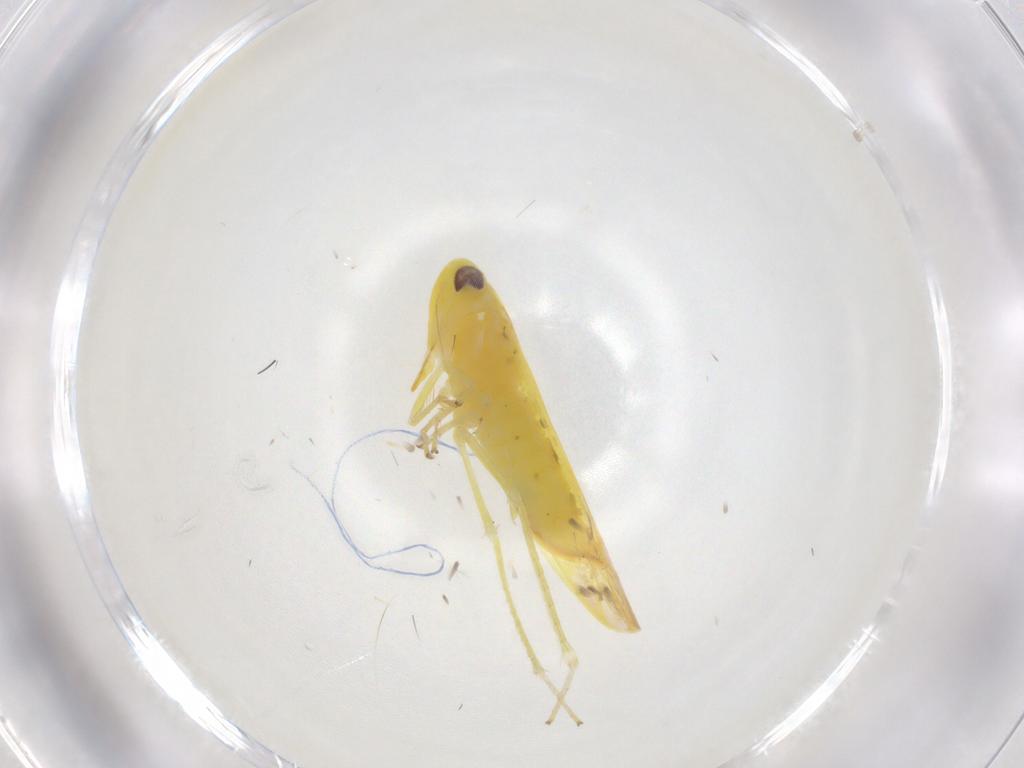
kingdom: Animalia
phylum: Arthropoda
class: Insecta
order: Hemiptera
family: Cicadellidae
